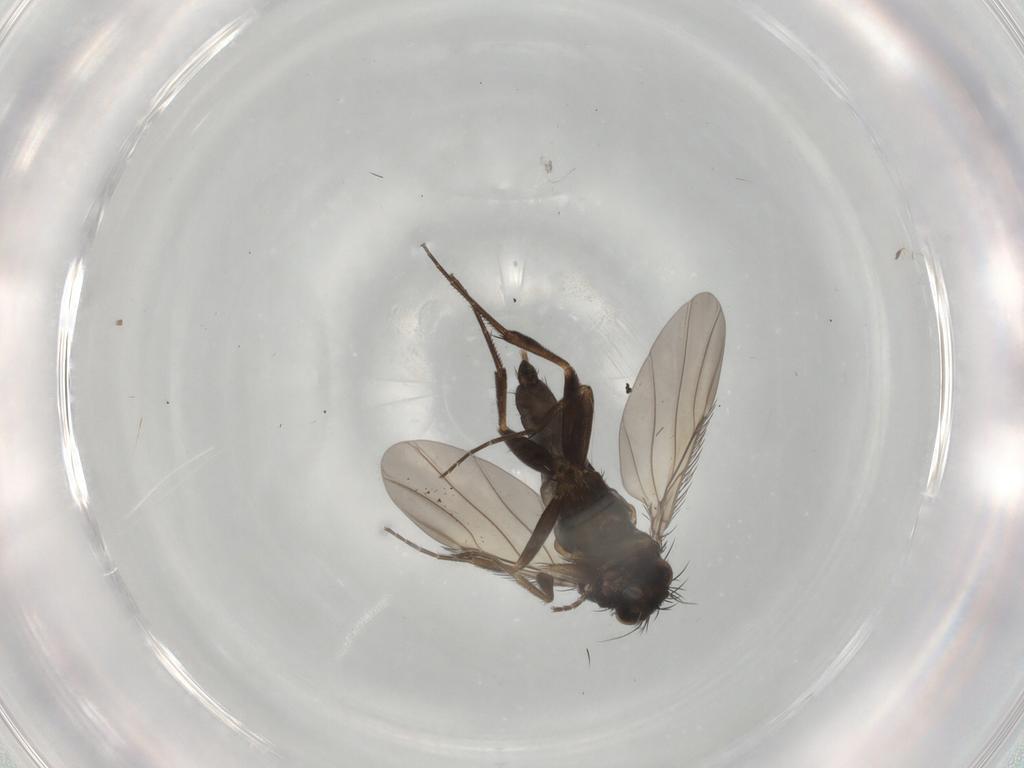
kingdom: Animalia
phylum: Arthropoda
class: Insecta
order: Diptera
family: Phoridae
